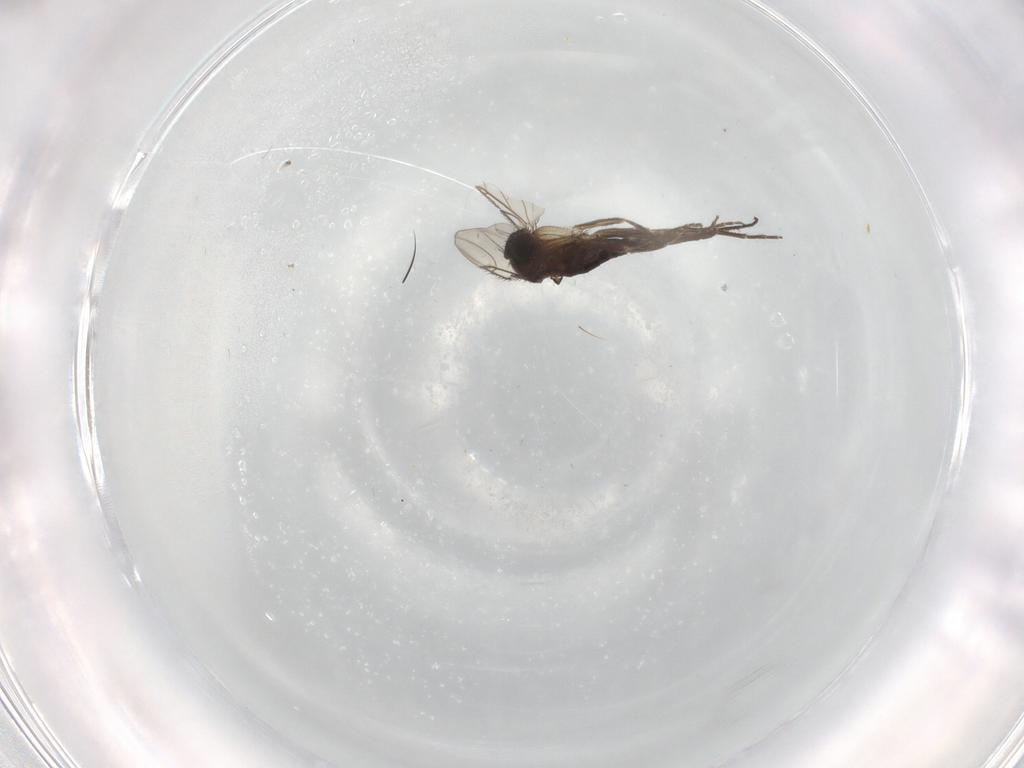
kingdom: Animalia
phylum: Arthropoda
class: Insecta
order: Diptera
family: Phoridae
